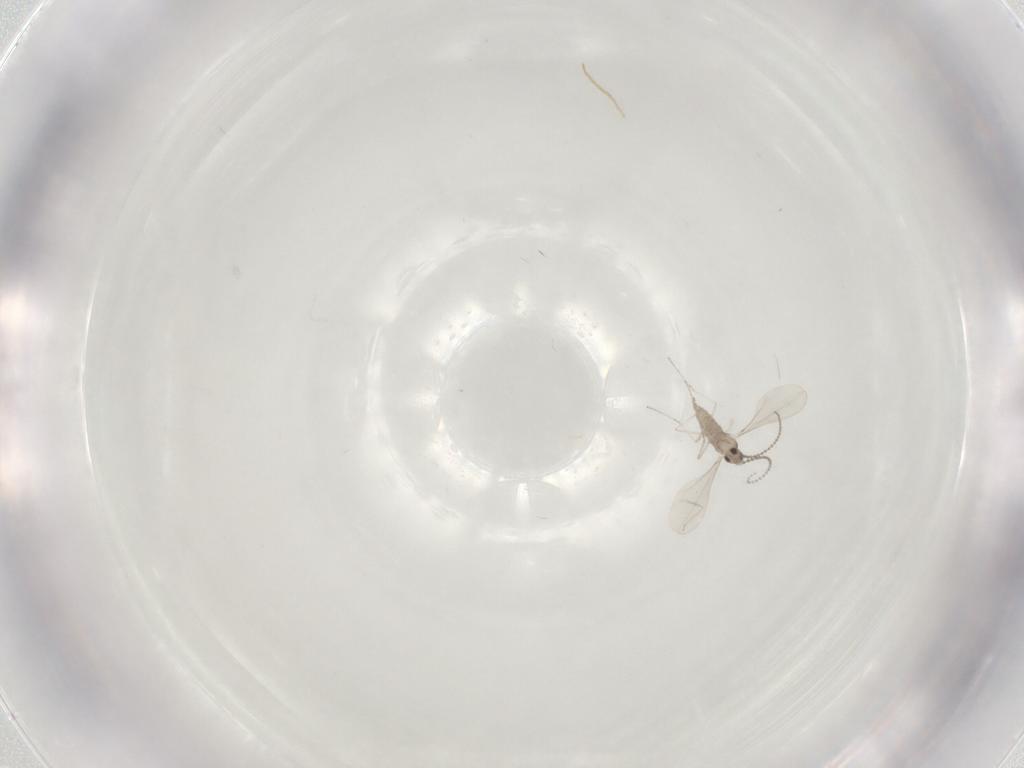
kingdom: Animalia
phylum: Arthropoda
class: Insecta
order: Diptera
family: Cecidomyiidae
